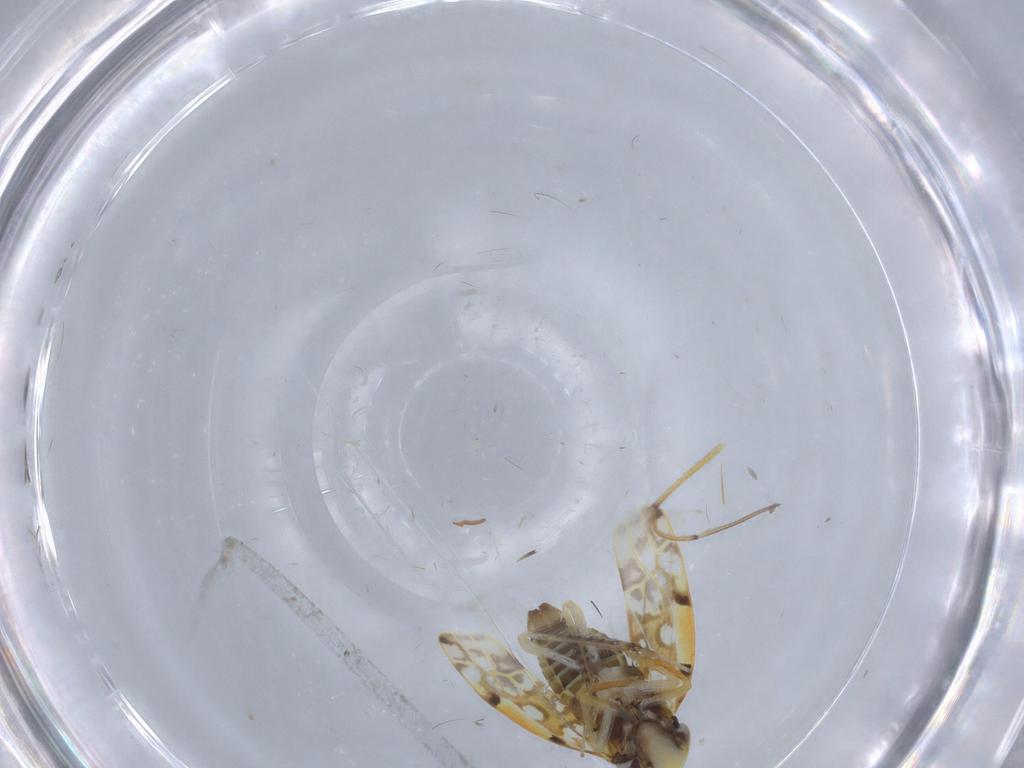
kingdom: Animalia
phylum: Arthropoda
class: Insecta
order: Hemiptera
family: Cicadellidae
